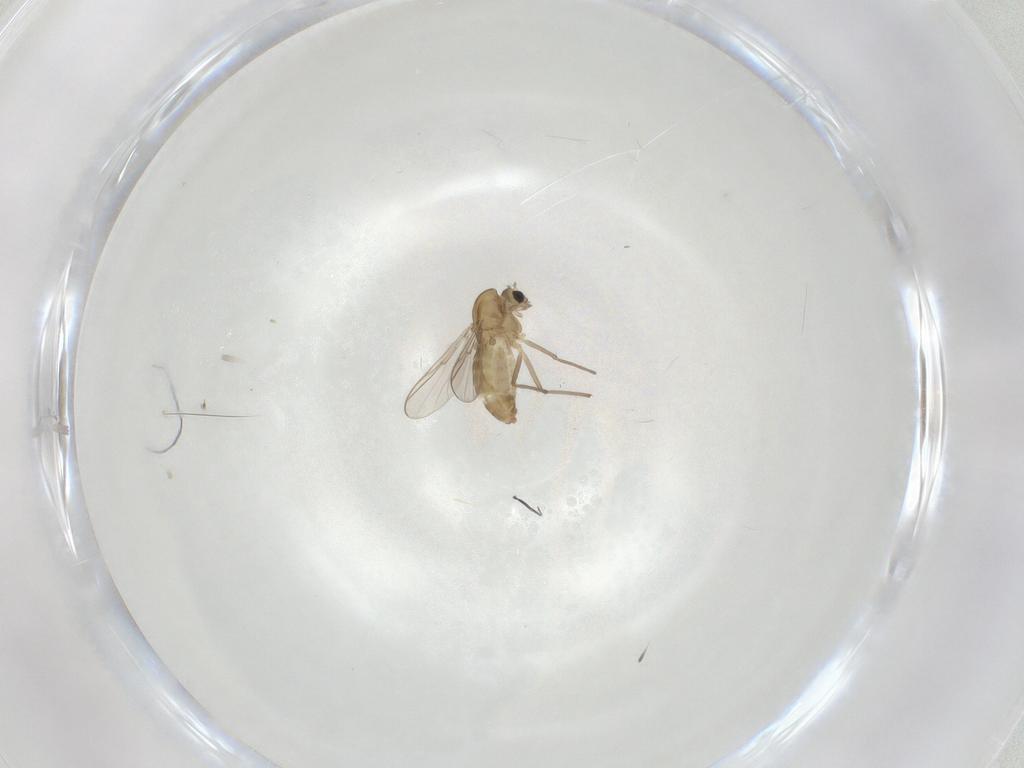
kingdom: Animalia
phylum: Arthropoda
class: Insecta
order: Diptera
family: Chironomidae
